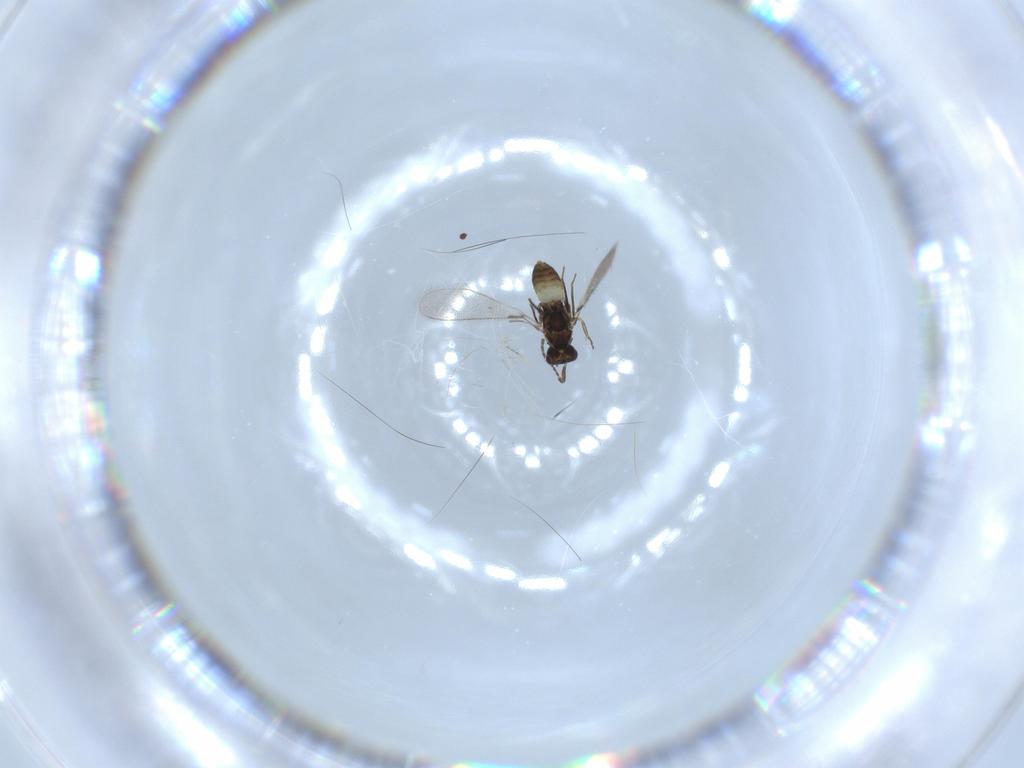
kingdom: Animalia
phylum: Arthropoda
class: Insecta
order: Hymenoptera
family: Mymaridae
